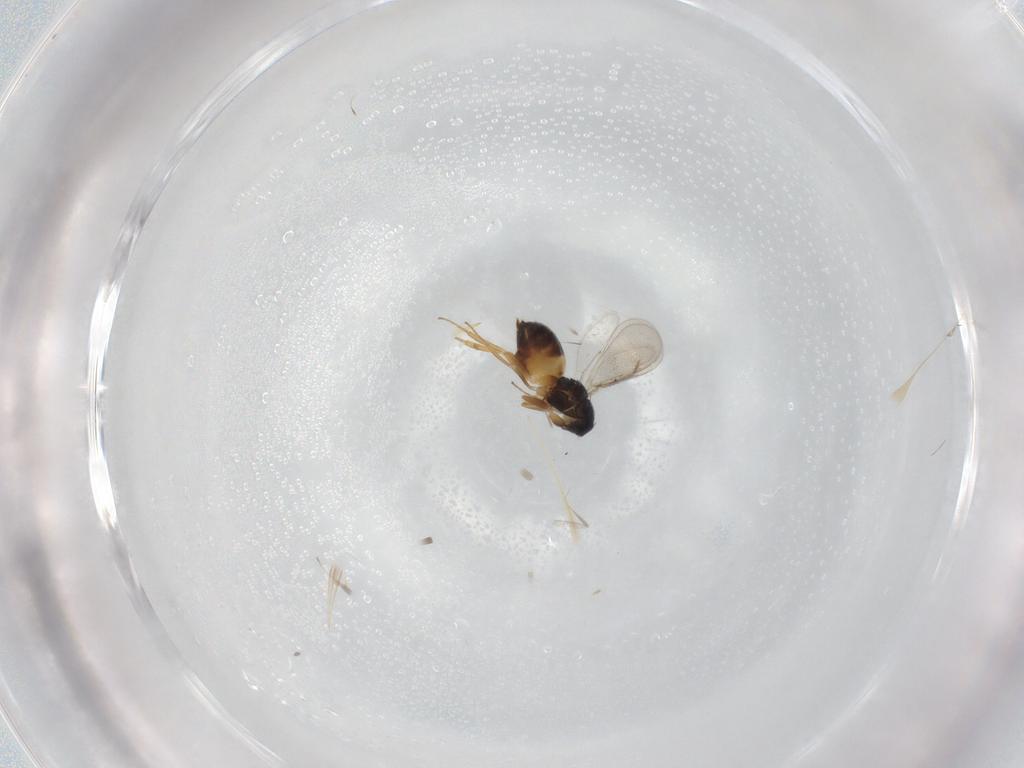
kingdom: Animalia
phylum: Arthropoda
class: Insecta
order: Hymenoptera
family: Eulophidae
